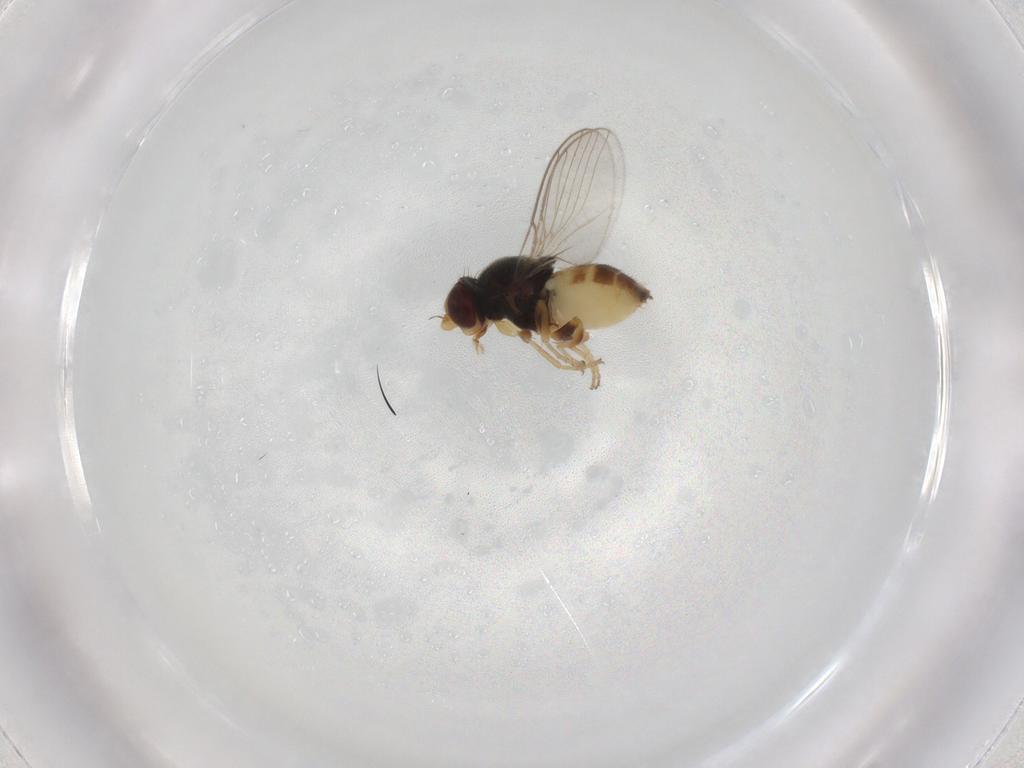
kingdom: Animalia
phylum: Arthropoda
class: Insecta
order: Diptera
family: Chloropidae
